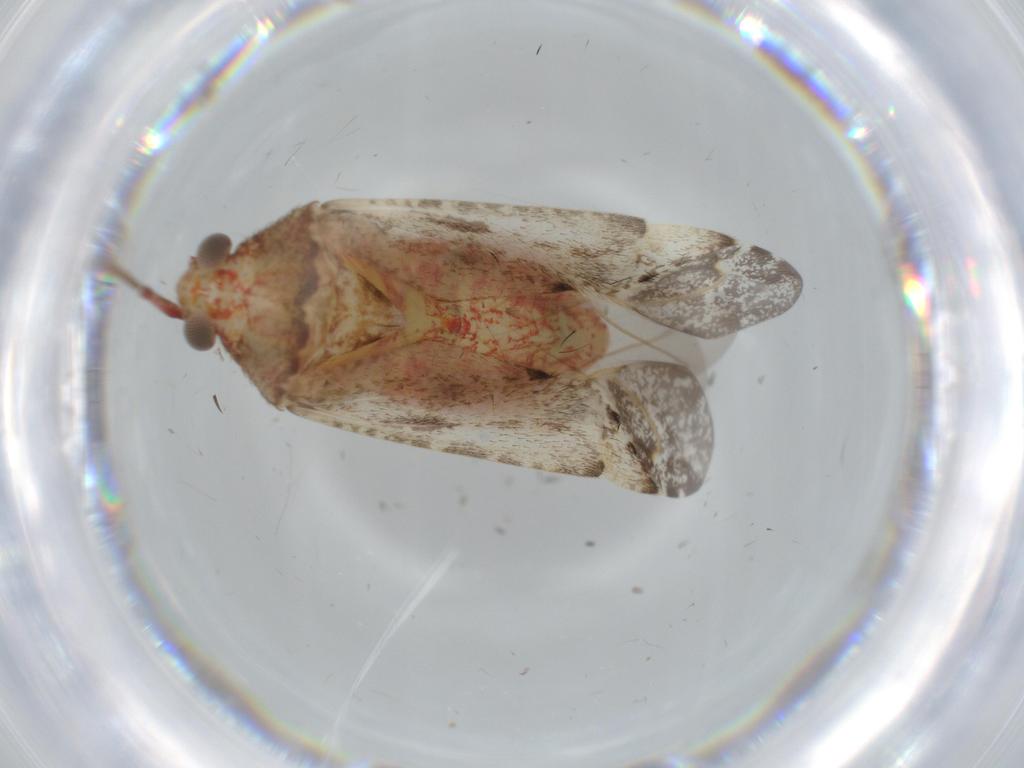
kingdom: Animalia
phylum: Arthropoda
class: Insecta
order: Hemiptera
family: Miridae
